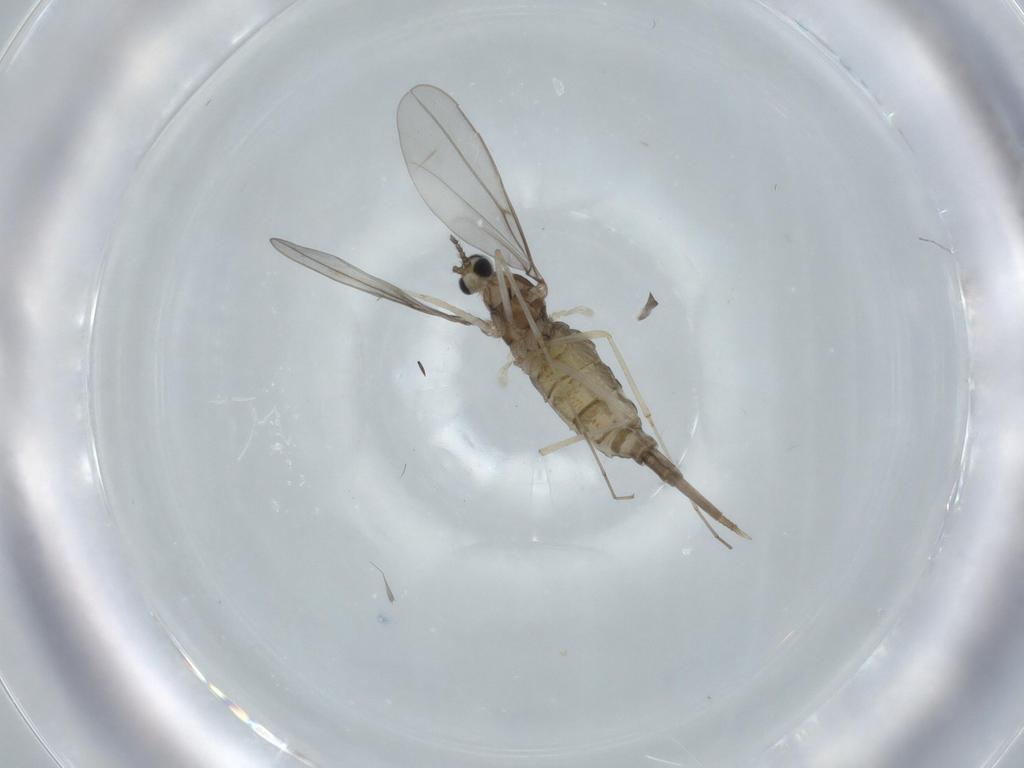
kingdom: Animalia
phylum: Arthropoda
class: Insecta
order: Diptera
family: Cecidomyiidae
